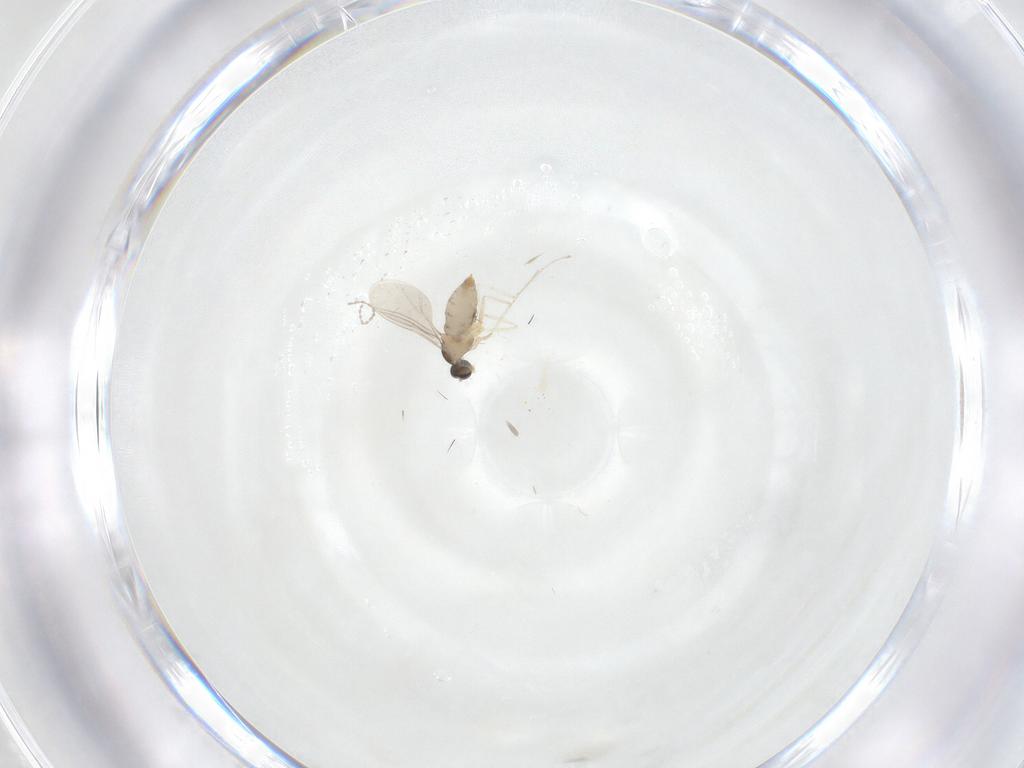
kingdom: Animalia
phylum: Arthropoda
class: Insecta
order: Diptera
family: Cecidomyiidae
